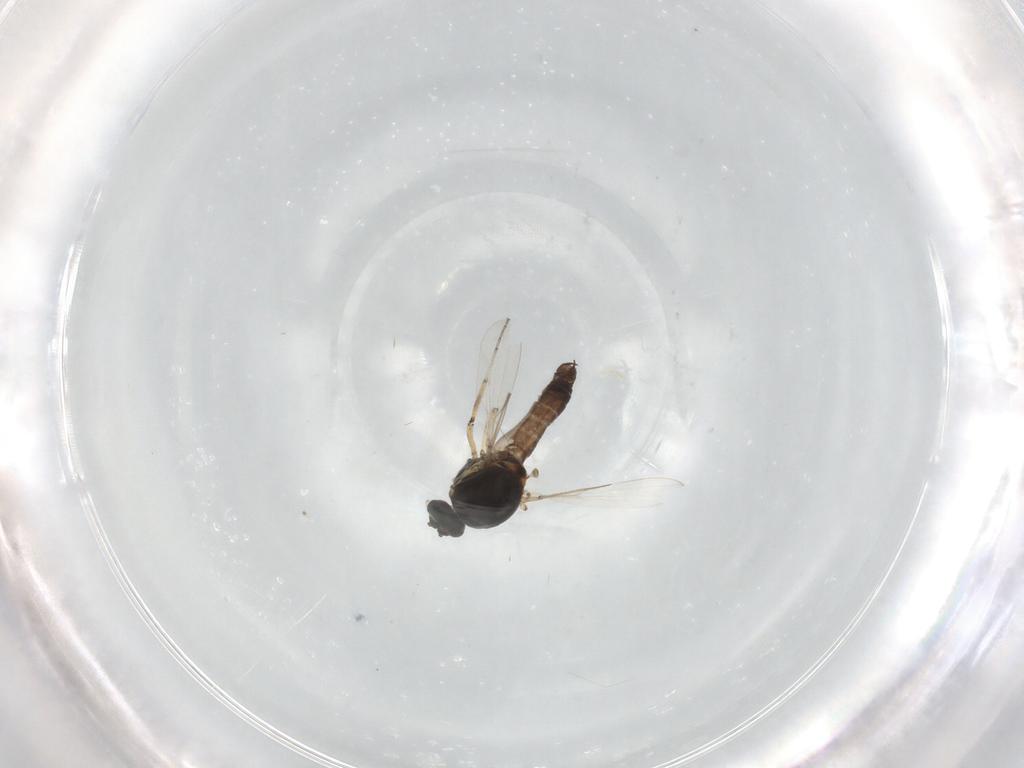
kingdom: Animalia
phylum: Arthropoda
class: Insecta
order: Diptera
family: Ceratopogonidae
